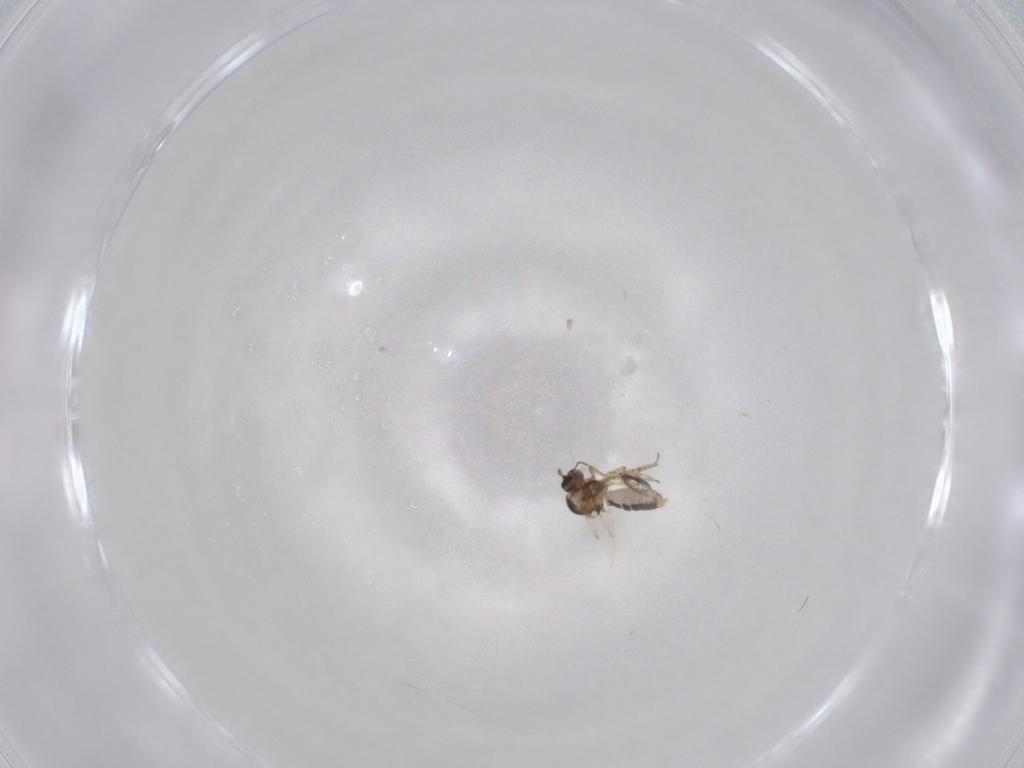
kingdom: Animalia
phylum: Arthropoda
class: Insecta
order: Diptera
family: Ceratopogonidae
